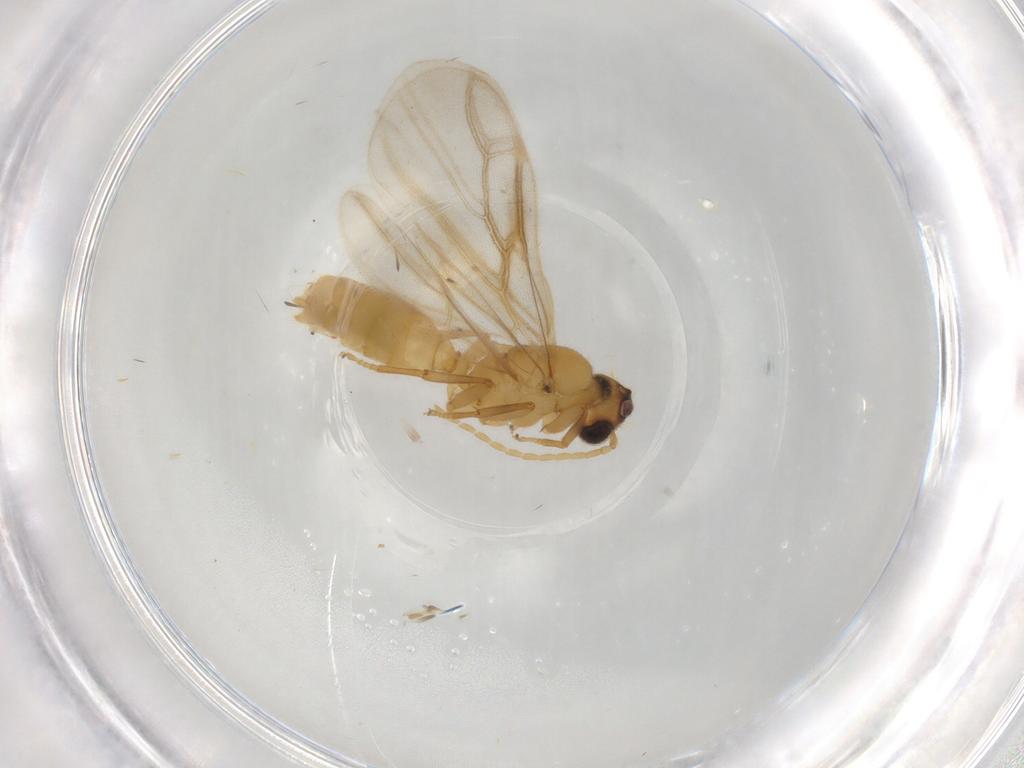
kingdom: Animalia
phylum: Arthropoda
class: Insecta
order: Hymenoptera
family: Formicidae
